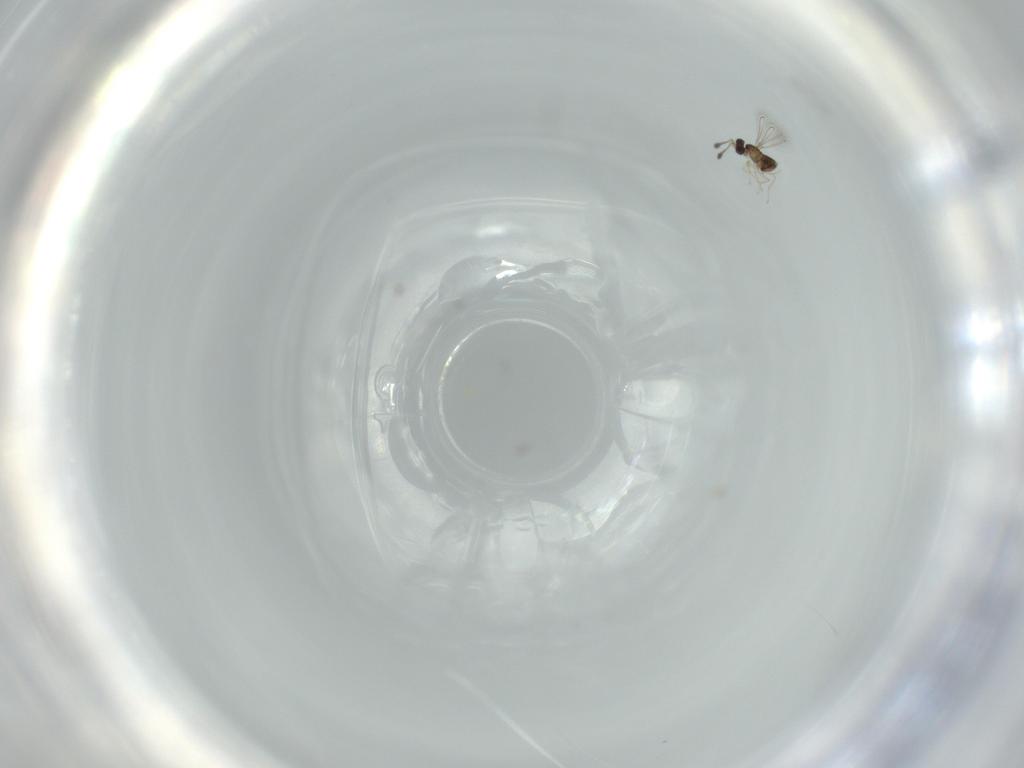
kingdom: Animalia
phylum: Arthropoda
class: Insecta
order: Hymenoptera
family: Mymaridae
